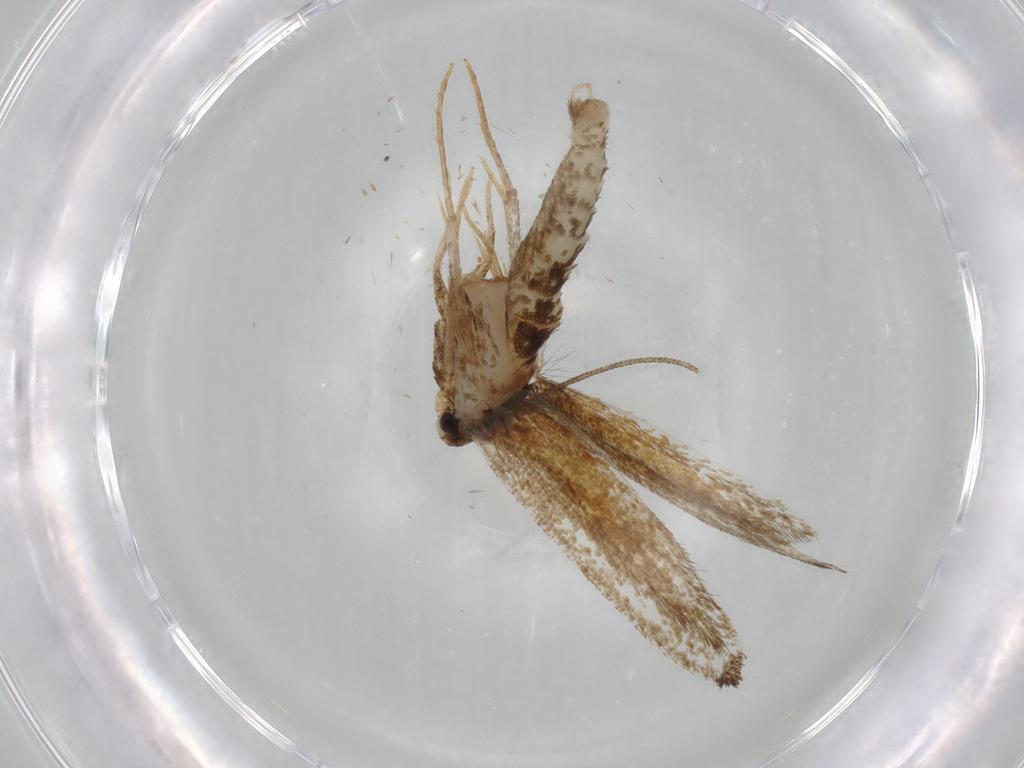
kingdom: Animalia
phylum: Arthropoda
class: Insecta
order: Lepidoptera
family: Tineidae
